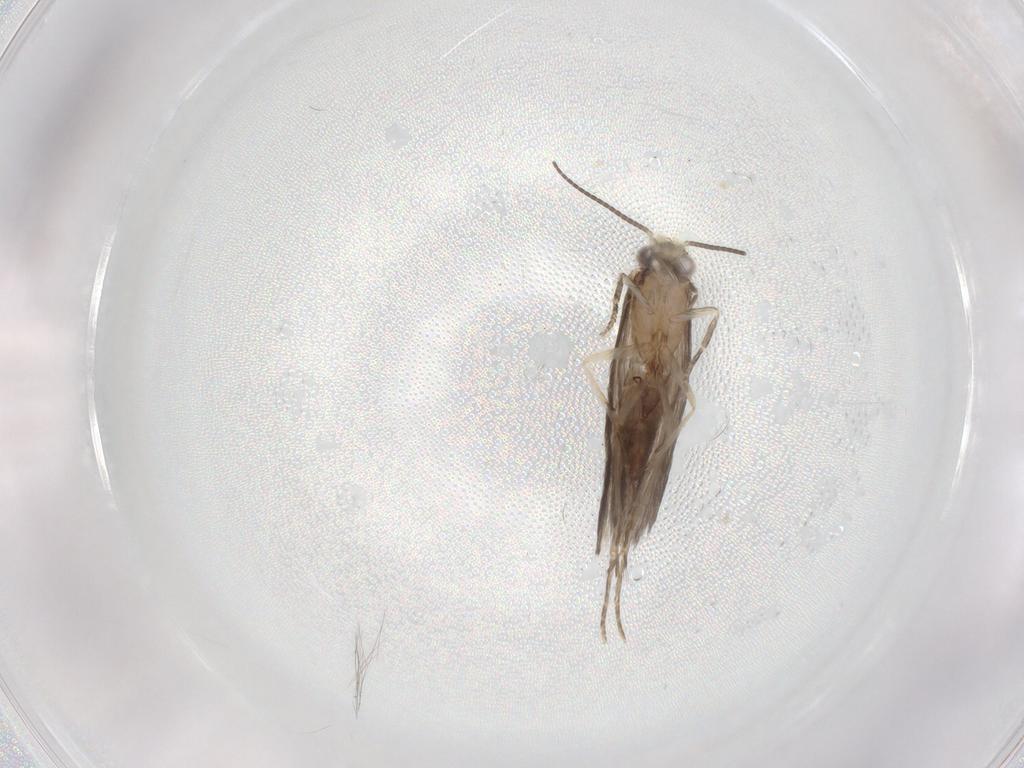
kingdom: Animalia
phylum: Arthropoda
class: Insecta
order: Trichoptera
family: Hydroptilidae
